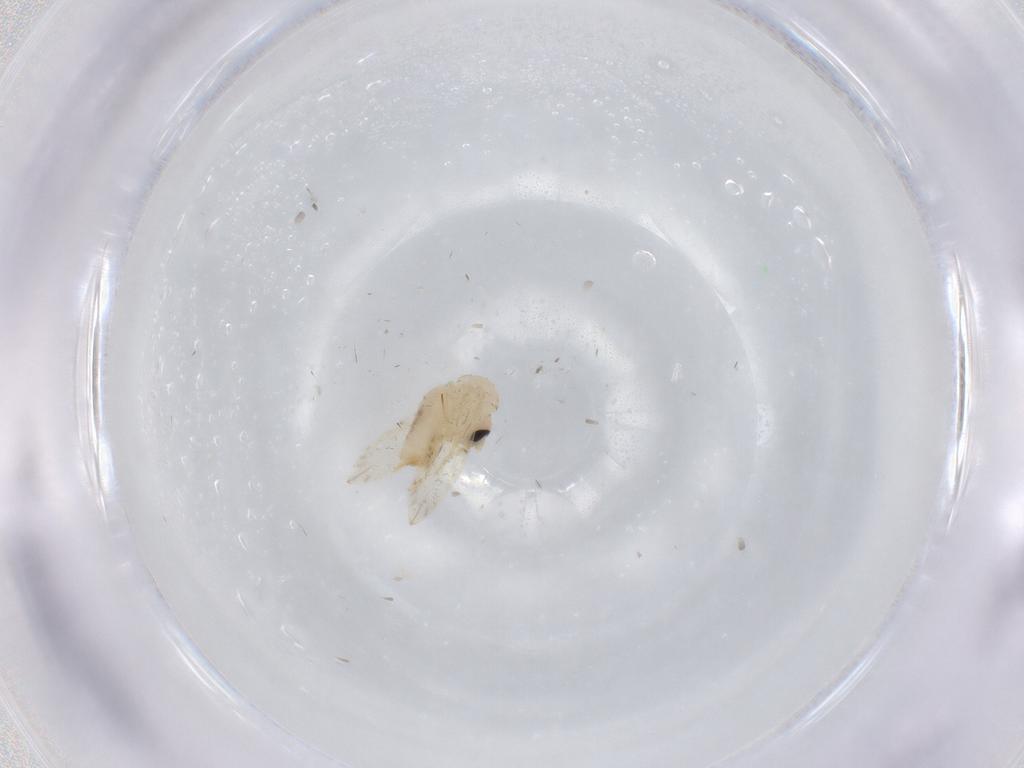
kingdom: Animalia
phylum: Arthropoda
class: Insecta
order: Diptera
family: Psychodidae
